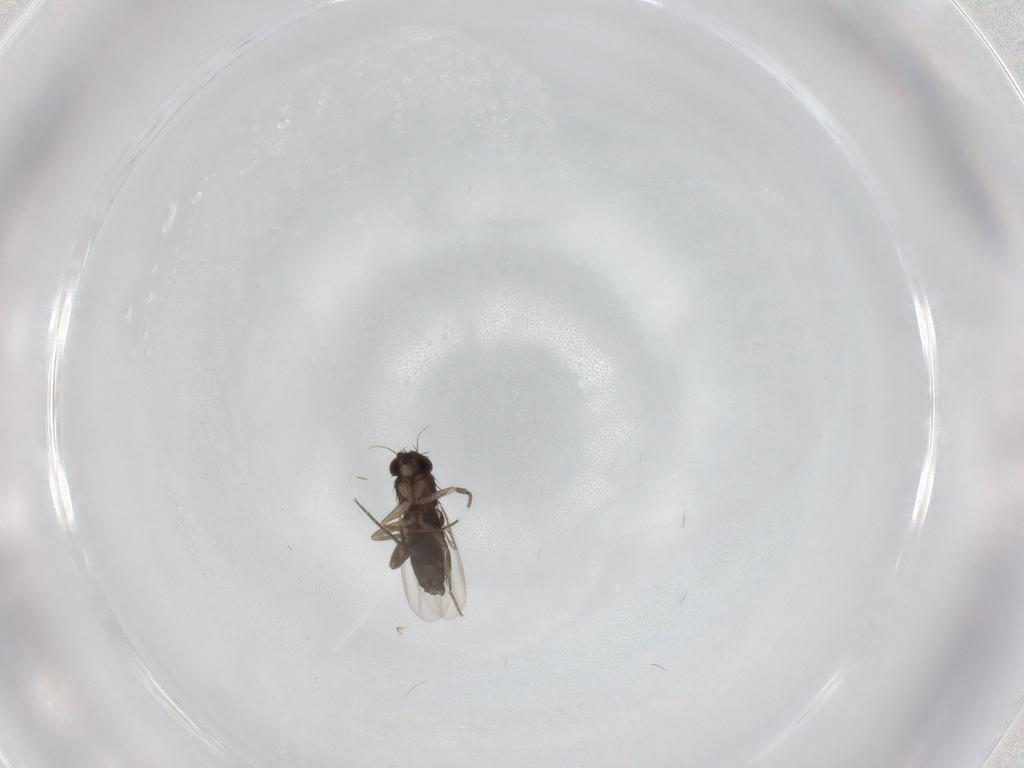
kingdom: Animalia
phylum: Arthropoda
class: Insecta
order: Diptera
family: Phoridae
